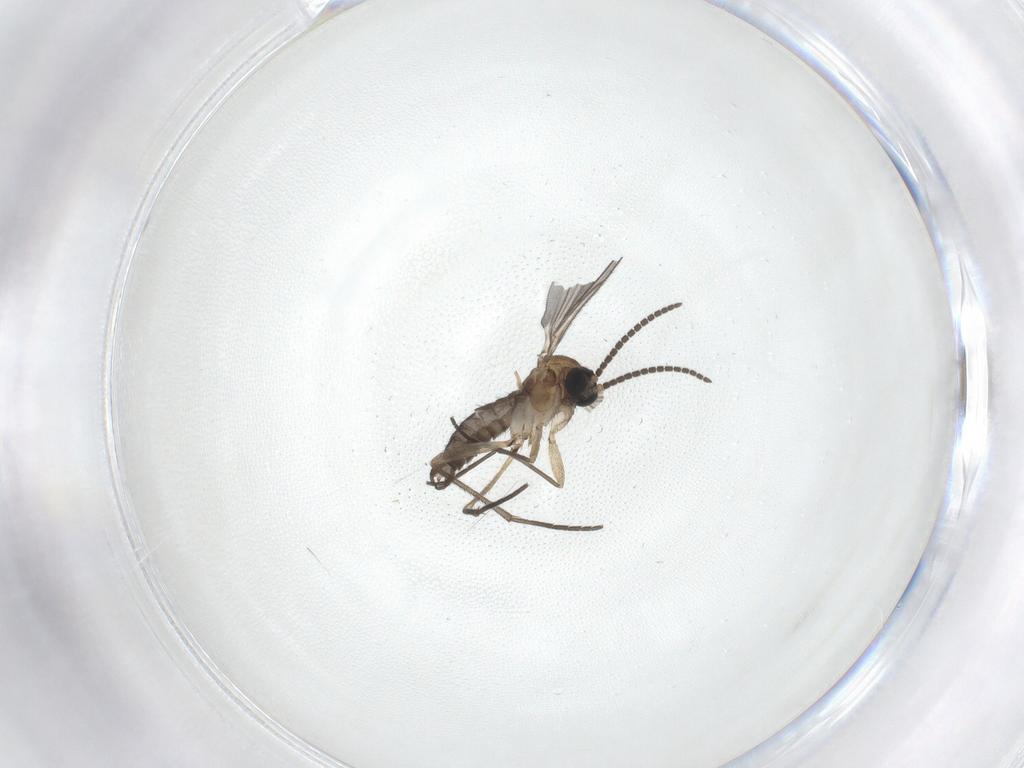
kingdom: Animalia
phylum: Arthropoda
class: Insecta
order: Diptera
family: Sciaridae
